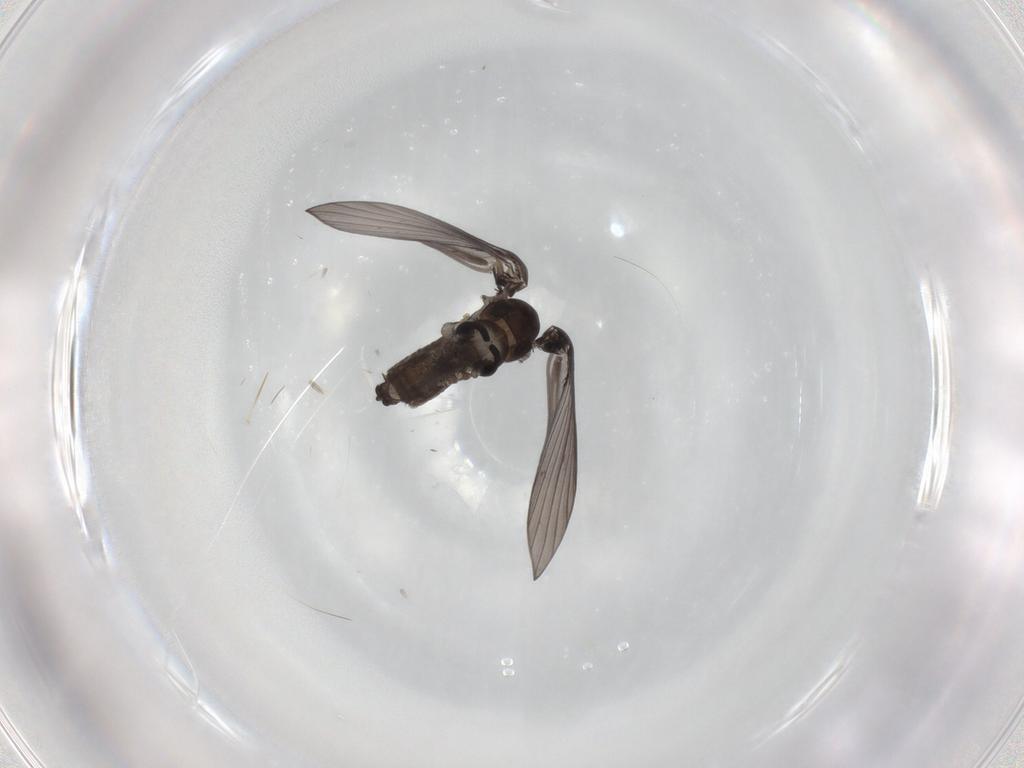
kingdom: Animalia
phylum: Arthropoda
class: Insecta
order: Diptera
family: Psychodidae
